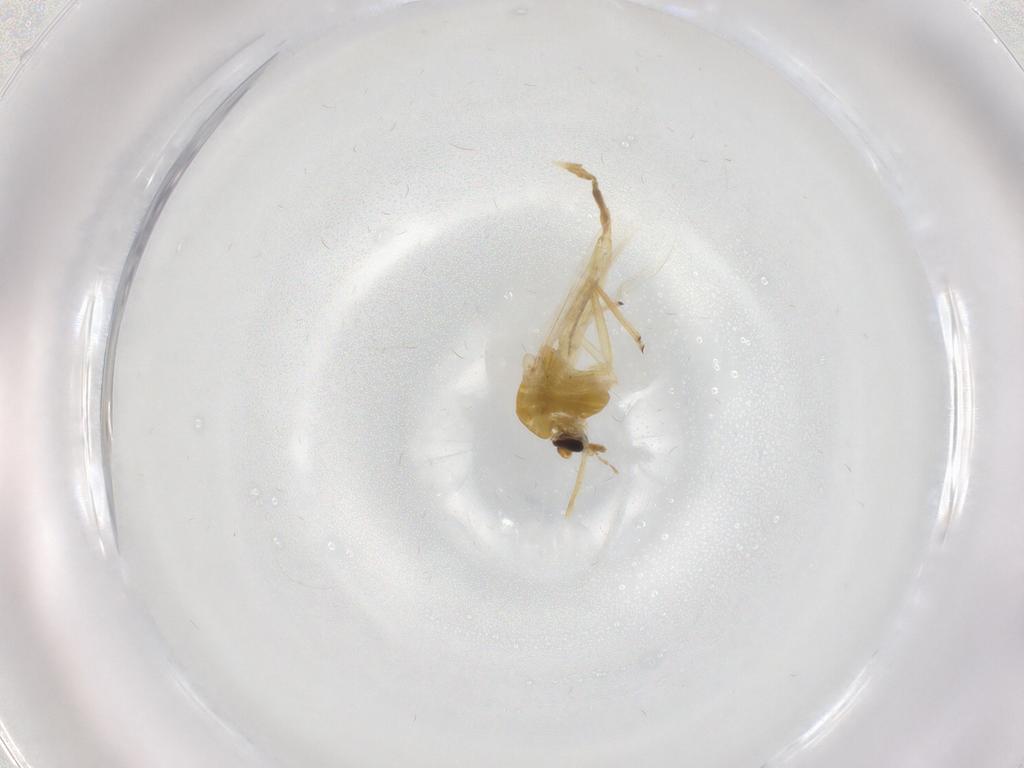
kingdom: Animalia
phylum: Arthropoda
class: Insecta
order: Diptera
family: Chironomidae
